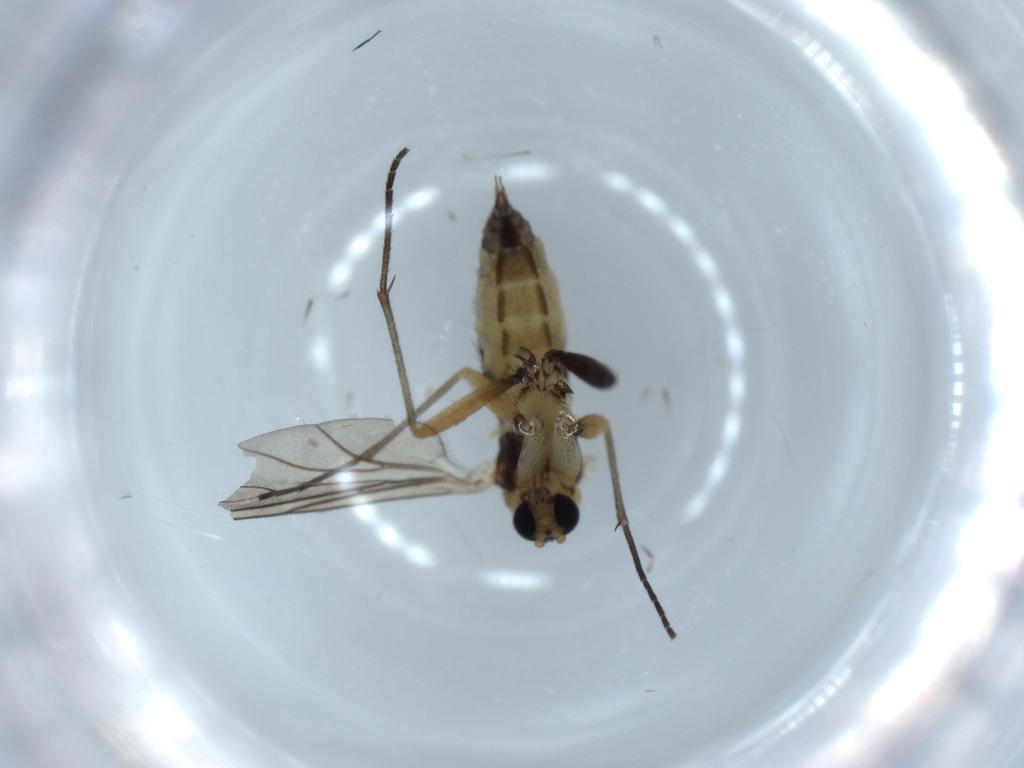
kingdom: Animalia
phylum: Arthropoda
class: Insecta
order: Diptera
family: Sciaridae
